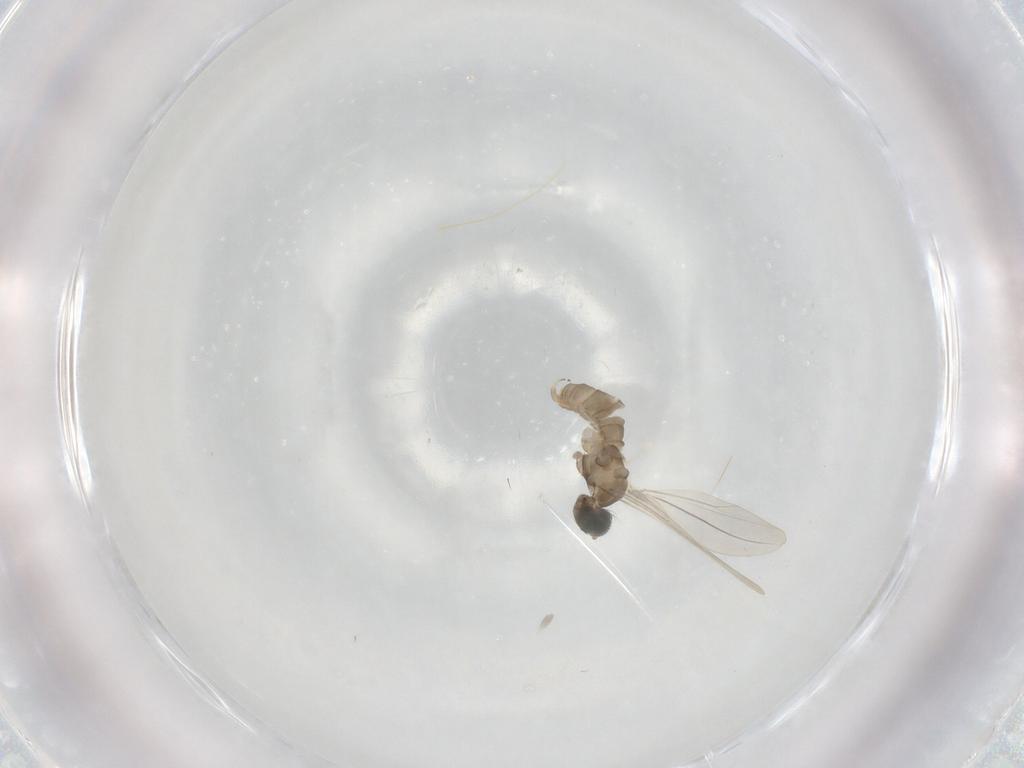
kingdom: Animalia
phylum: Arthropoda
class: Insecta
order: Diptera
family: Cecidomyiidae
